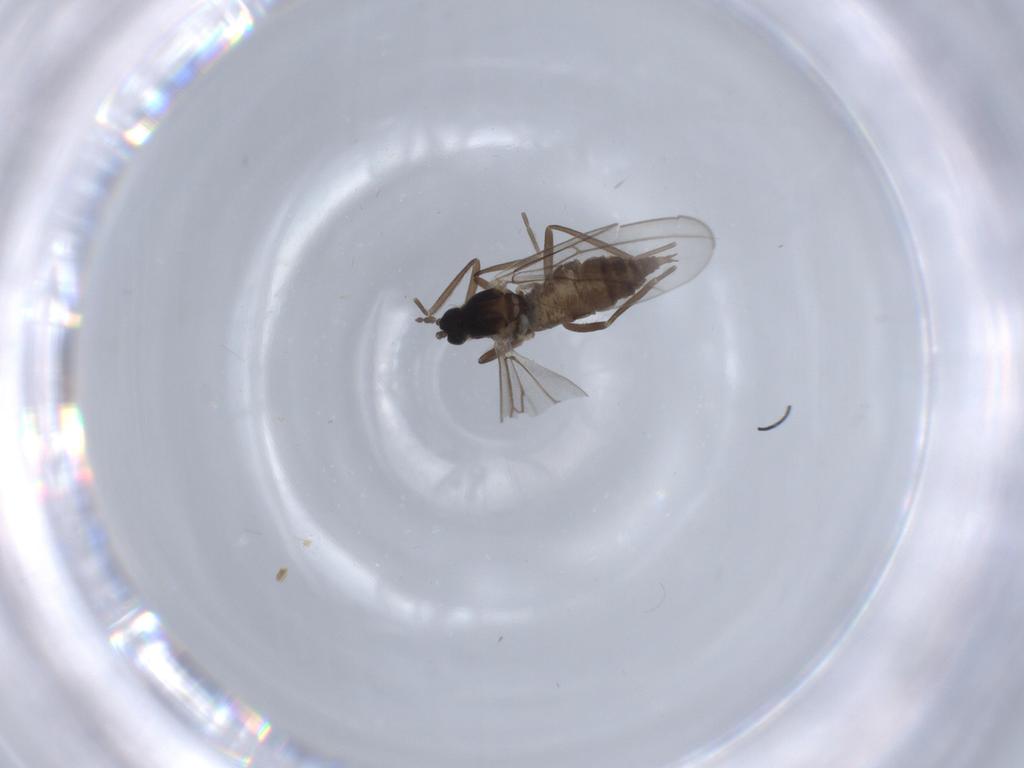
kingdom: Animalia
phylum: Arthropoda
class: Insecta
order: Diptera
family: Cecidomyiidae
